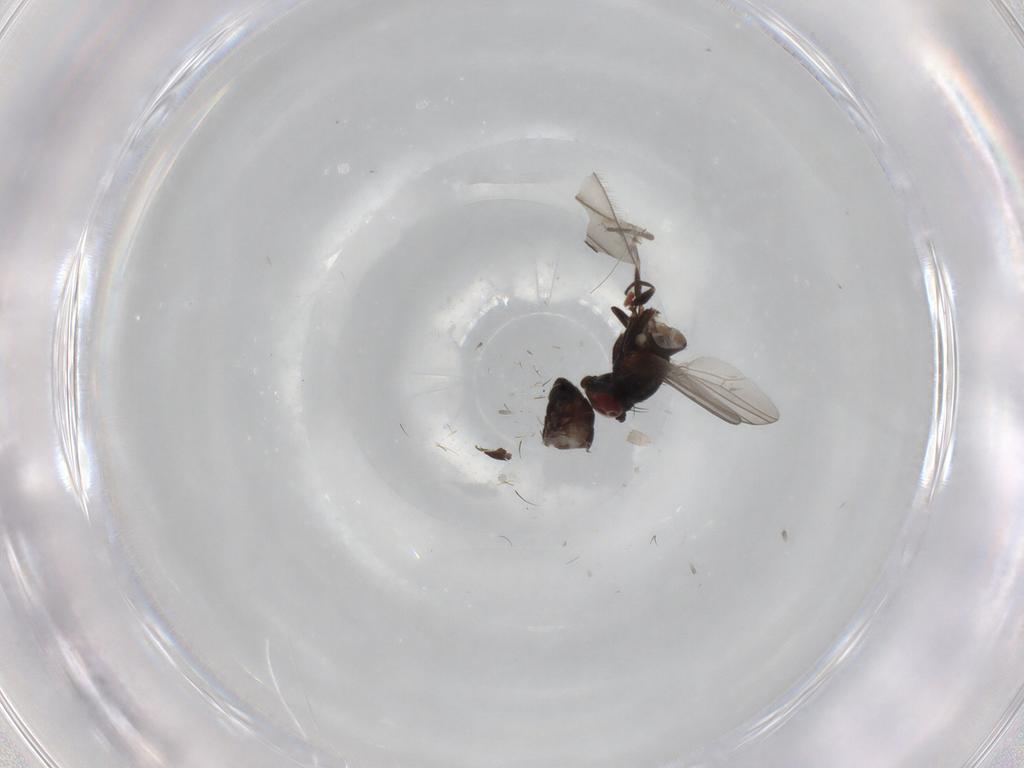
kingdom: Animalia
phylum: Arthropoda
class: Insecta
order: Diptera
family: Dolichopodidae
